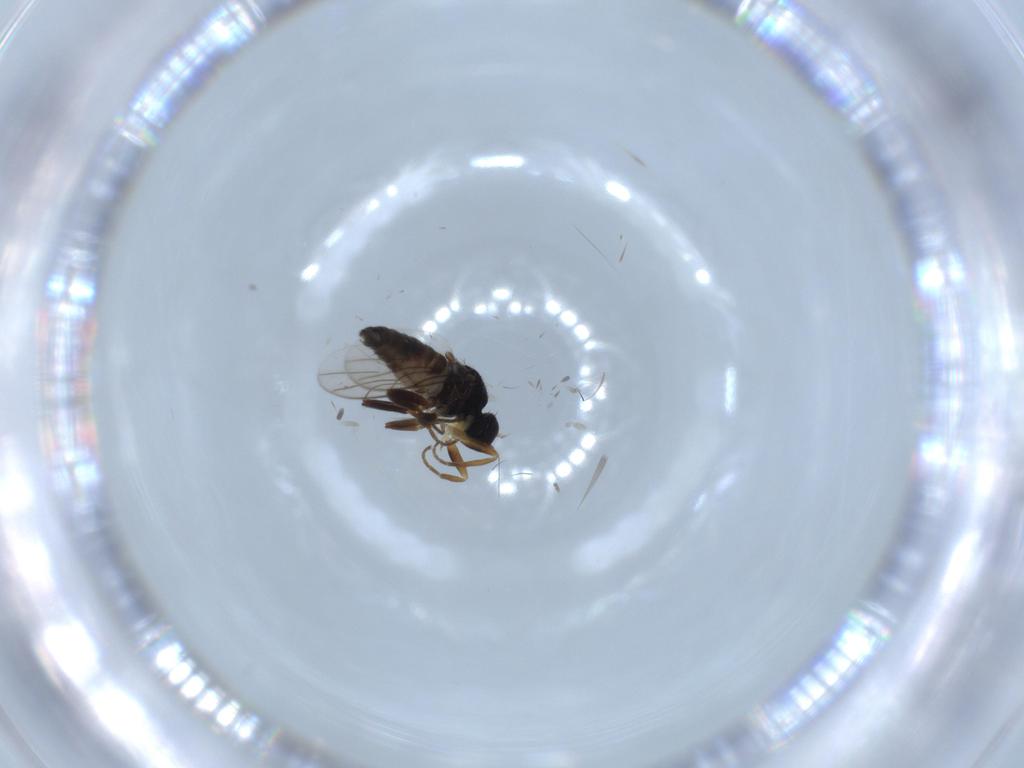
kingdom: Animalia
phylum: Arthropoda
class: Insecta
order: Diptera
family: Hybotidae
